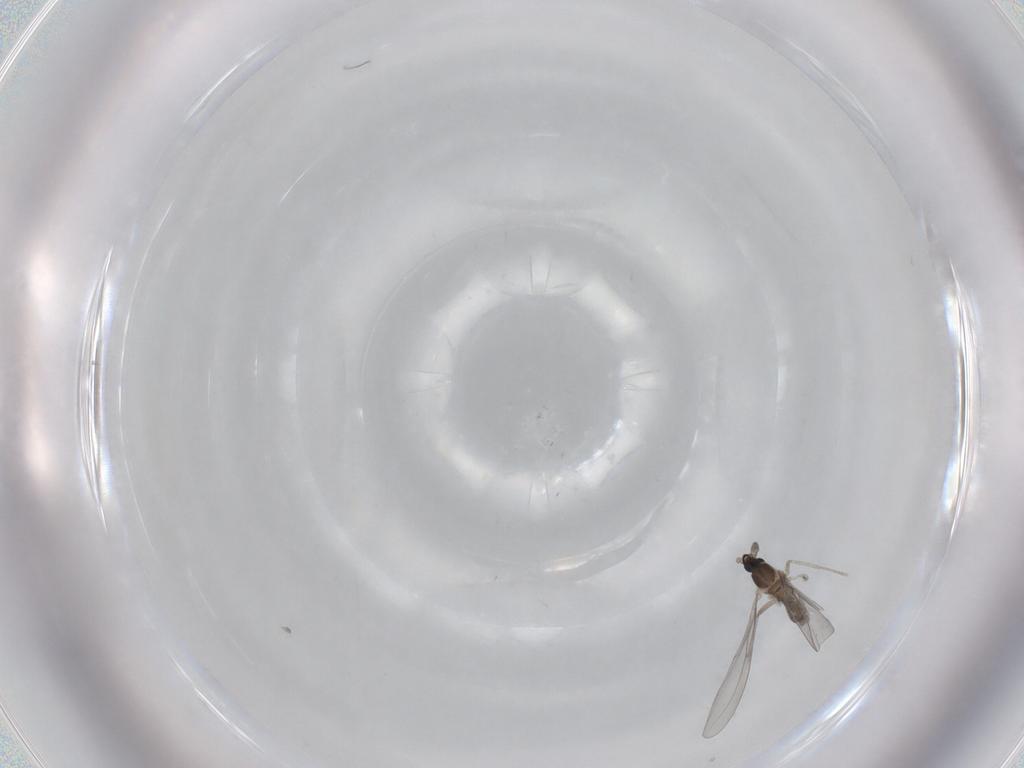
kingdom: Animalia
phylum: Arthropoda
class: Insecta
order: Diptera
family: Cecidomyiidae
